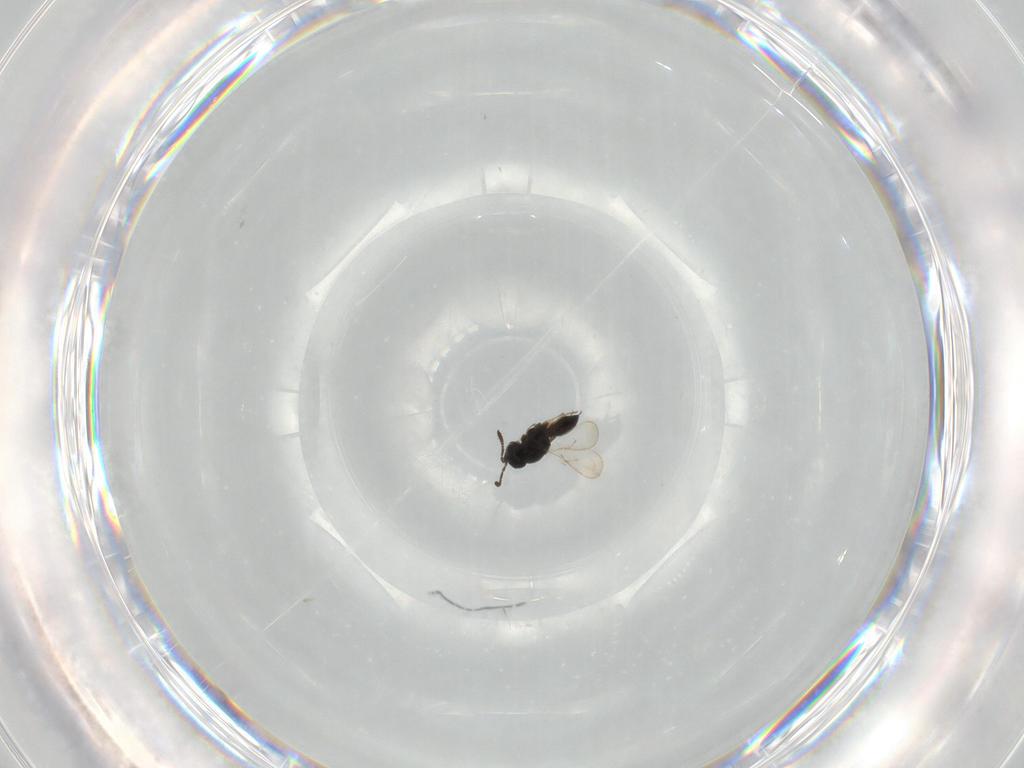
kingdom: Animalia
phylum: Arthropoda
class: Insecta
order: Hymenoptera
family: Scelionidae
